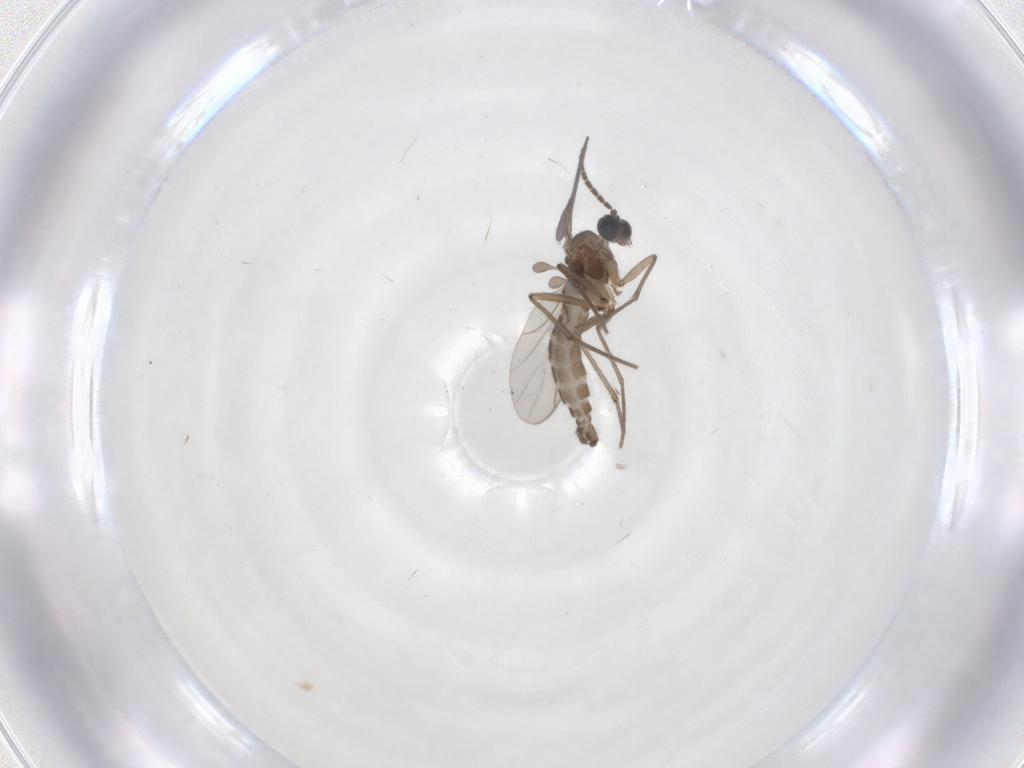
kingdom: Animalia
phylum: Arthropoda
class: Insecta
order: Diptera
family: Sciaridae
